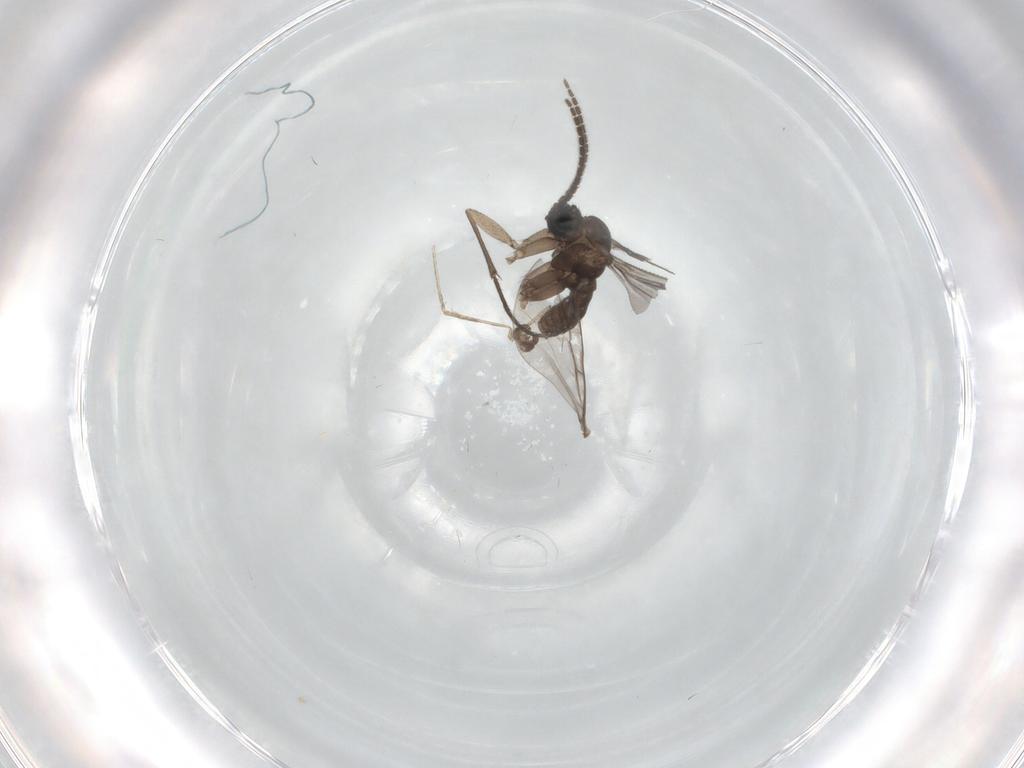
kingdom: Animalia
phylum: Arthropoda
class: Insecta
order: Diptera
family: Sciaridae
